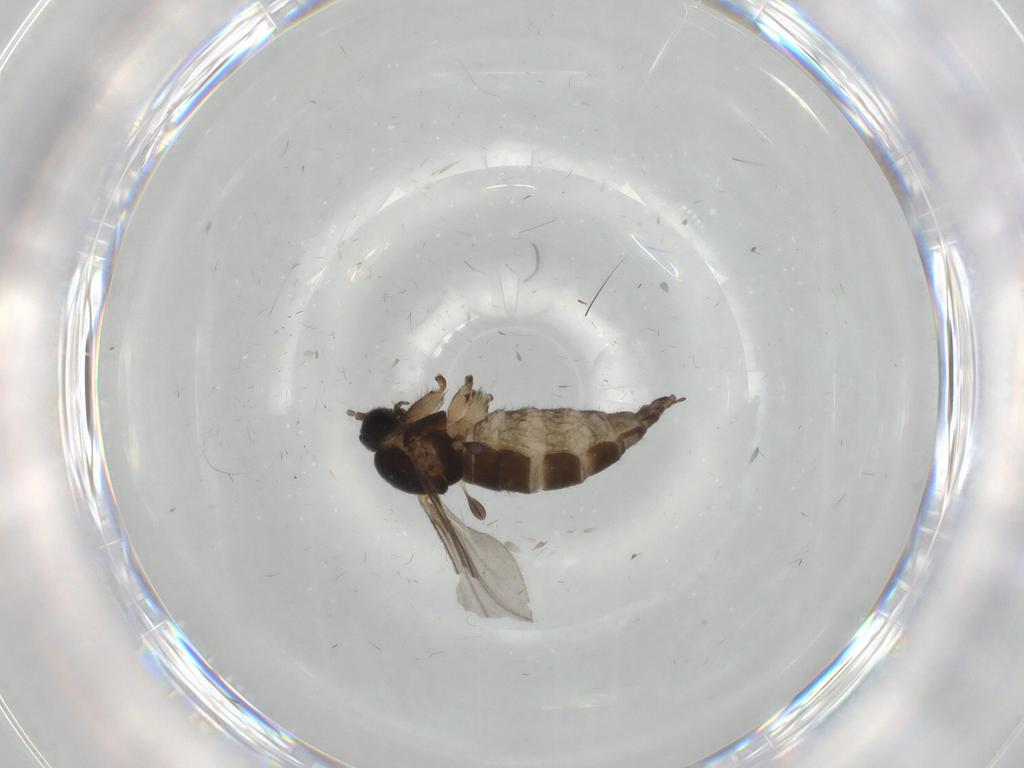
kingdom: Animalia
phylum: Arthropoda
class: Insecta
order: Diptera
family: Sciaridae
